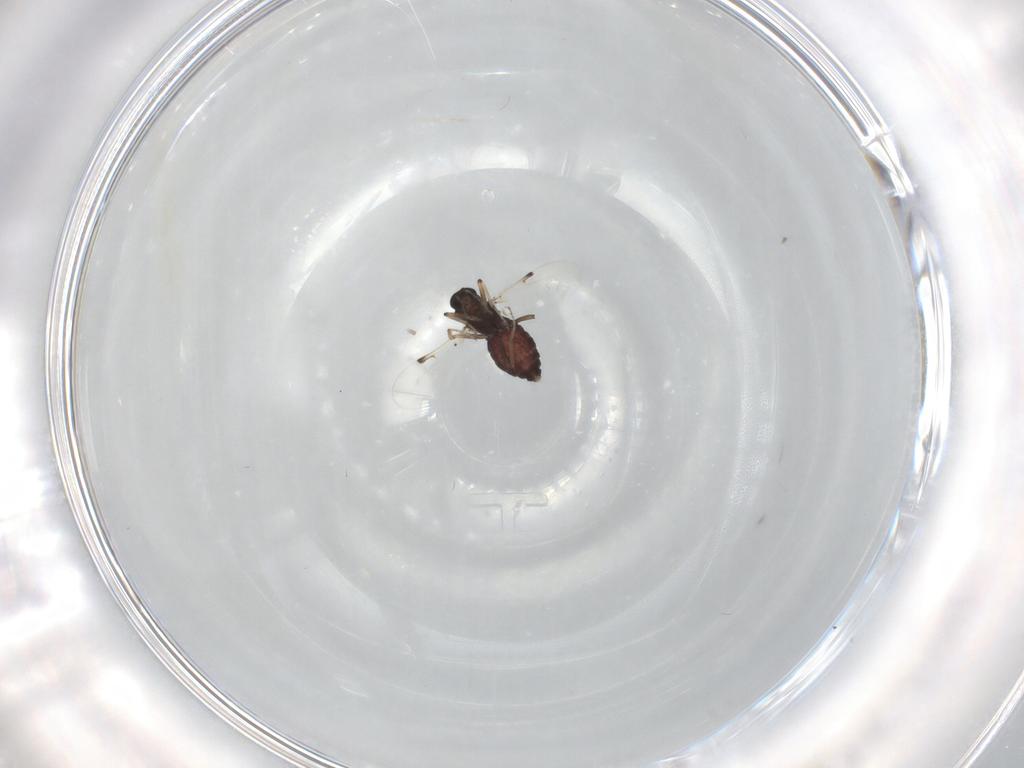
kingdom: Animalia
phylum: Arthropoda
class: Insecta
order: Diptera
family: Ceratopogonidae
